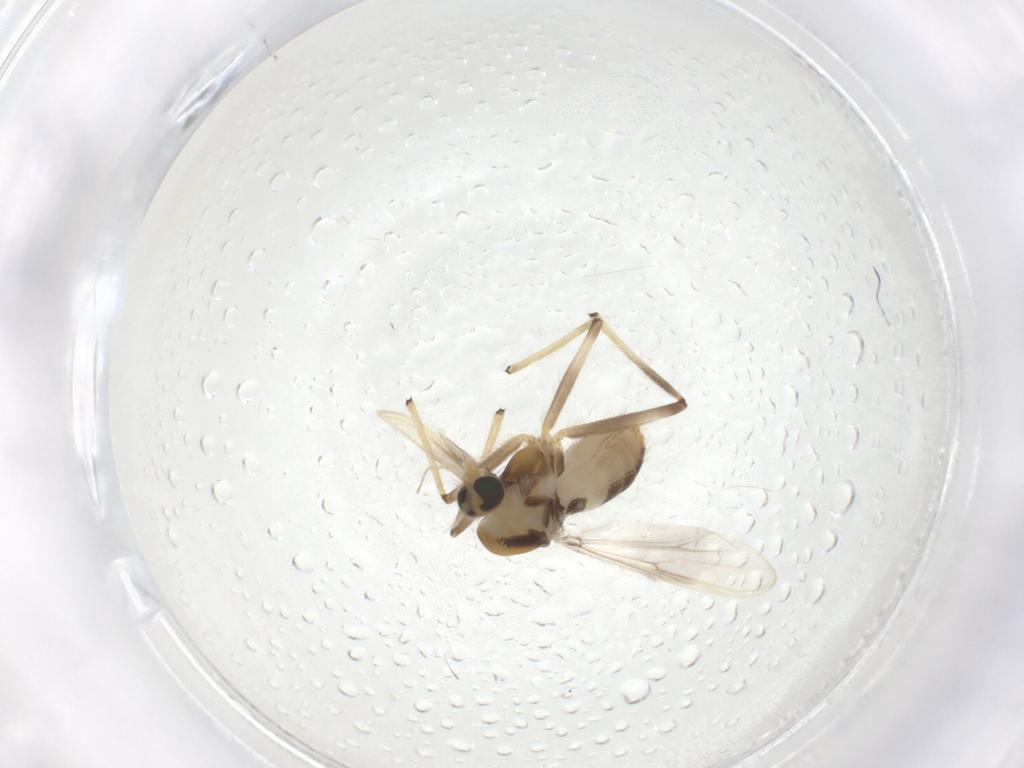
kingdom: Animalia
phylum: Arthropoda
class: Insecta
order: Diptera
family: Chironomidae
